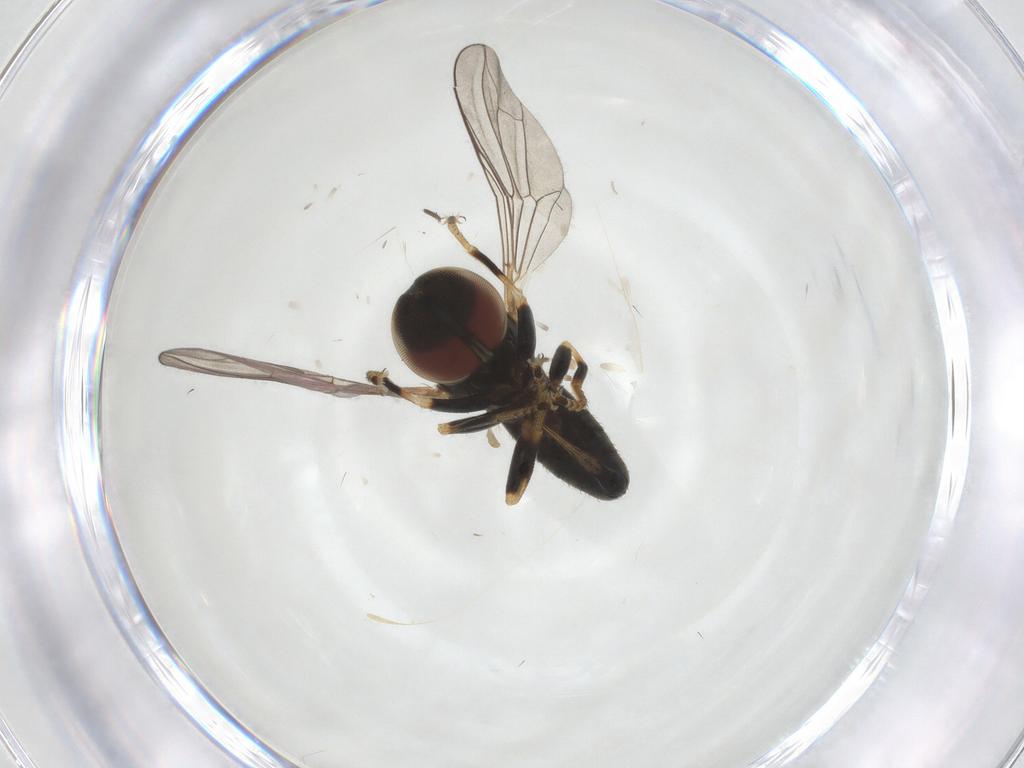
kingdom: Animalia
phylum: Arthropoda
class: Insecta
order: Diptera
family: Pipunculidae
